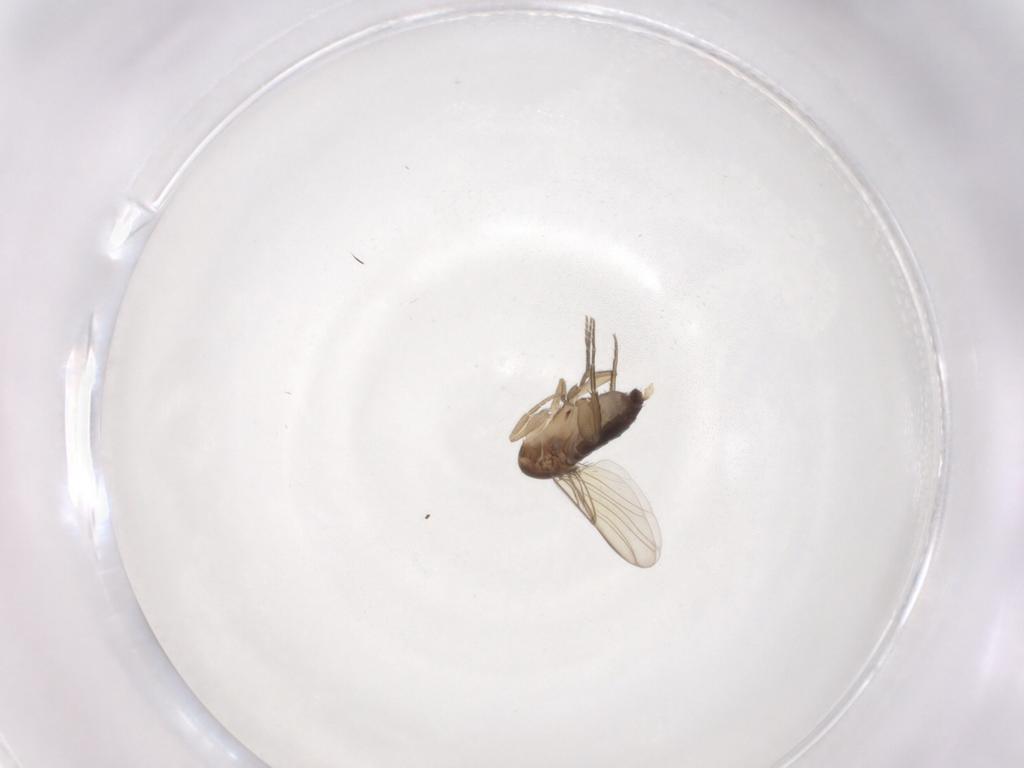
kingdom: Animalia
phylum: Arthropoda
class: Insecta
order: Diptera
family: Phoridae
